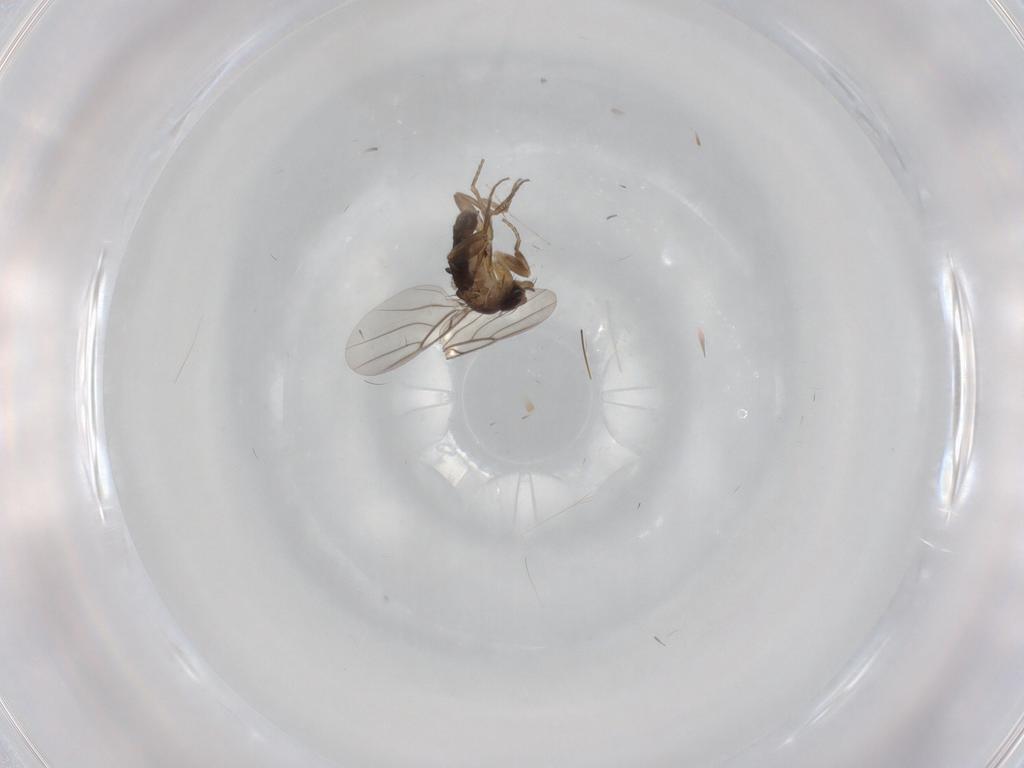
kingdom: Animalia
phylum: Arthropoda
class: Insecta
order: Diptera
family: Phoridae
